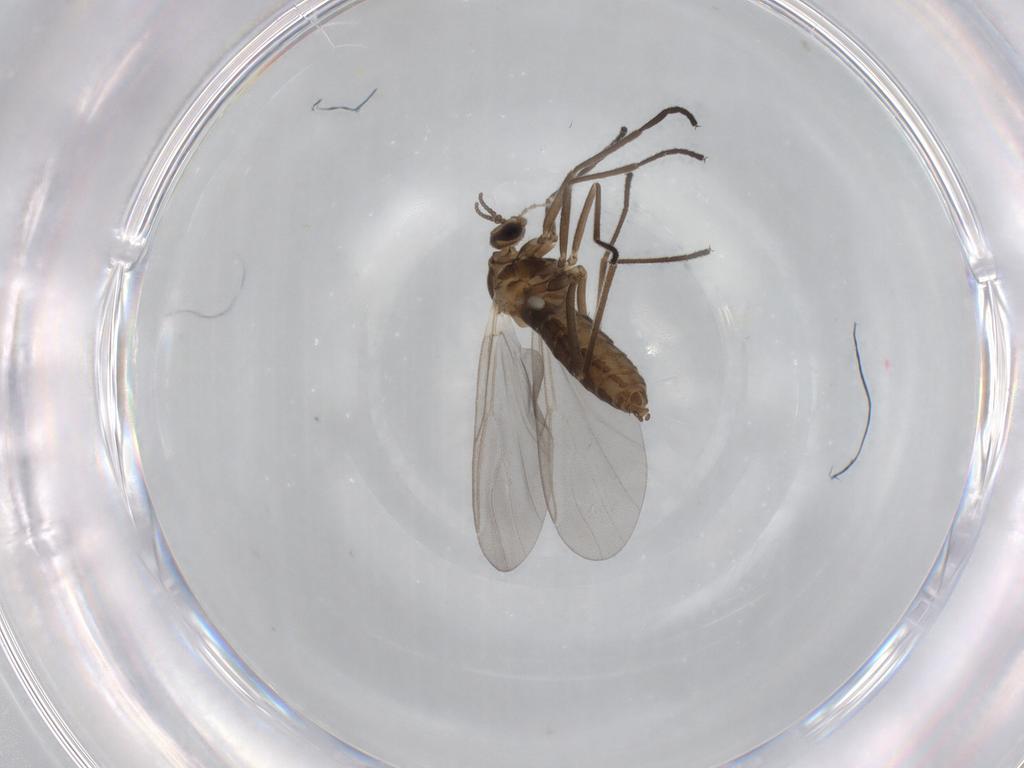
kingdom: Animalia
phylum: Arthropoda
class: Insecta
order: Diptera
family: Cecidomyiidae
